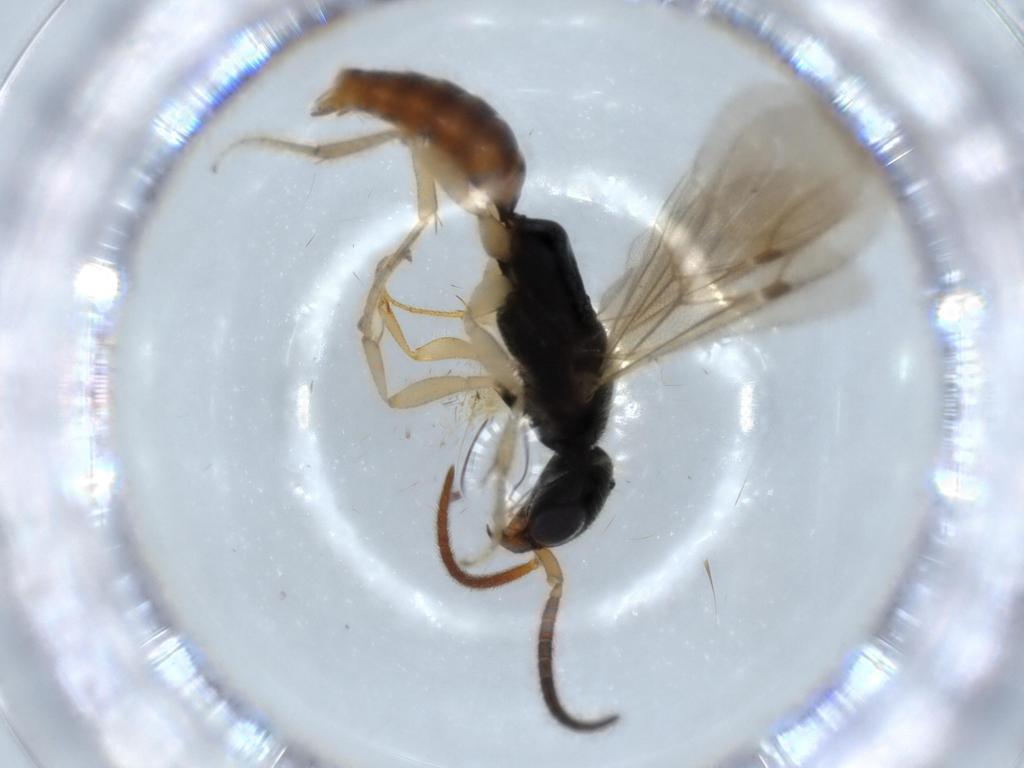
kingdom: Animalia
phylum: Arthropoda
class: Insecta
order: Hymenoptera
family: Bethylidae
